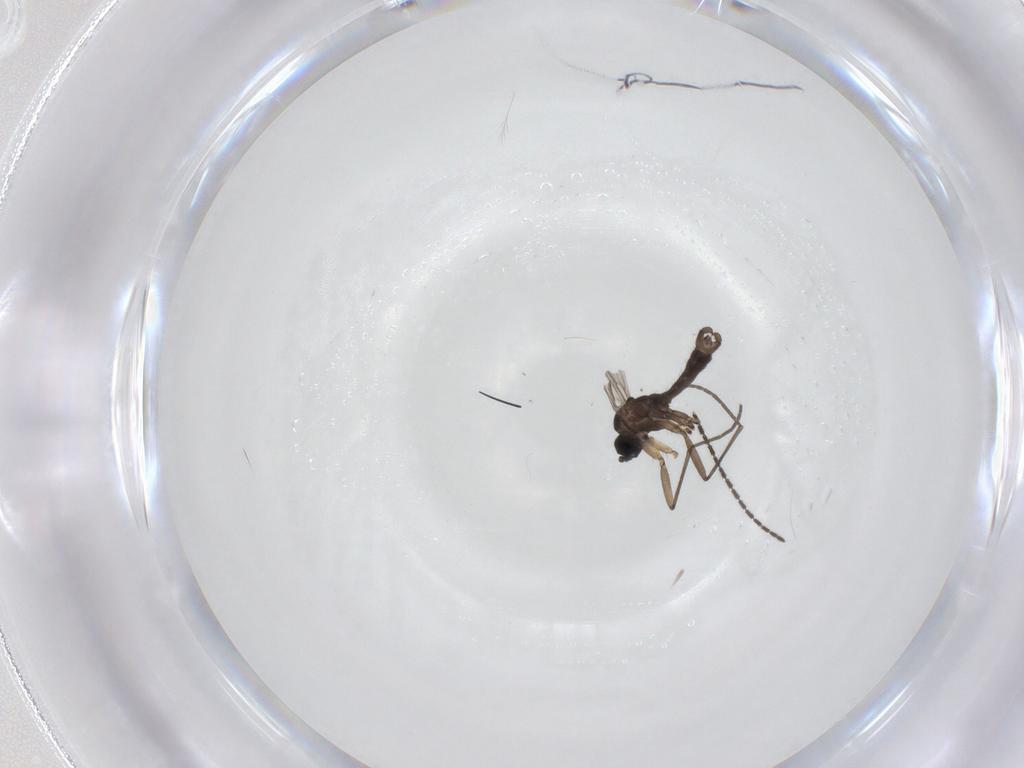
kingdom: Animalia
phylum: Arthropoda
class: Insecta
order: Diptera
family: Sciaridae
